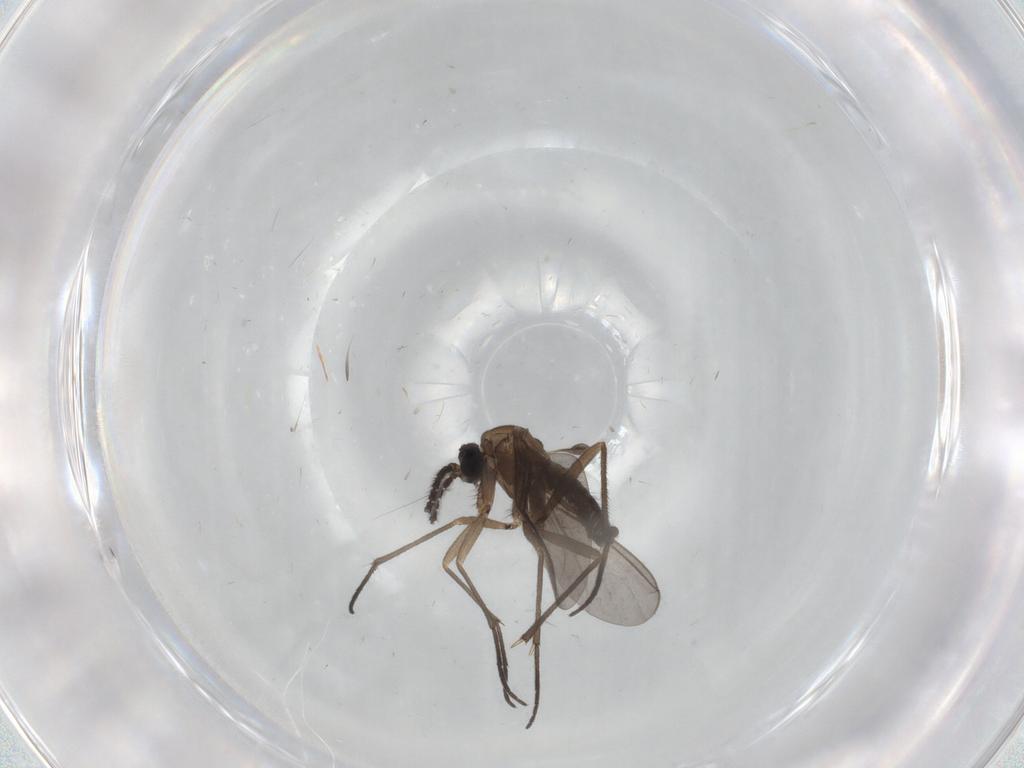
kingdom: Animalia
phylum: Arthropoda
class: Insecta
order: Diptera
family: Sciaridae
